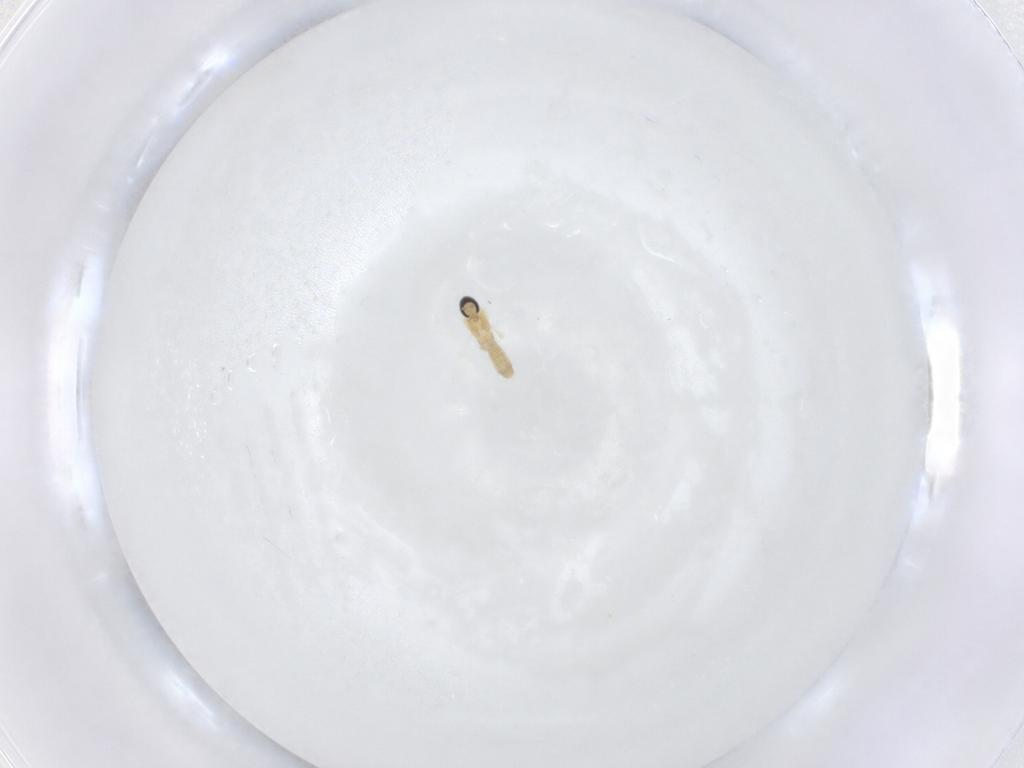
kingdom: Animalia
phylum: Arthropoda
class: Insecta
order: Diptera
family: Cecidomyiidae
